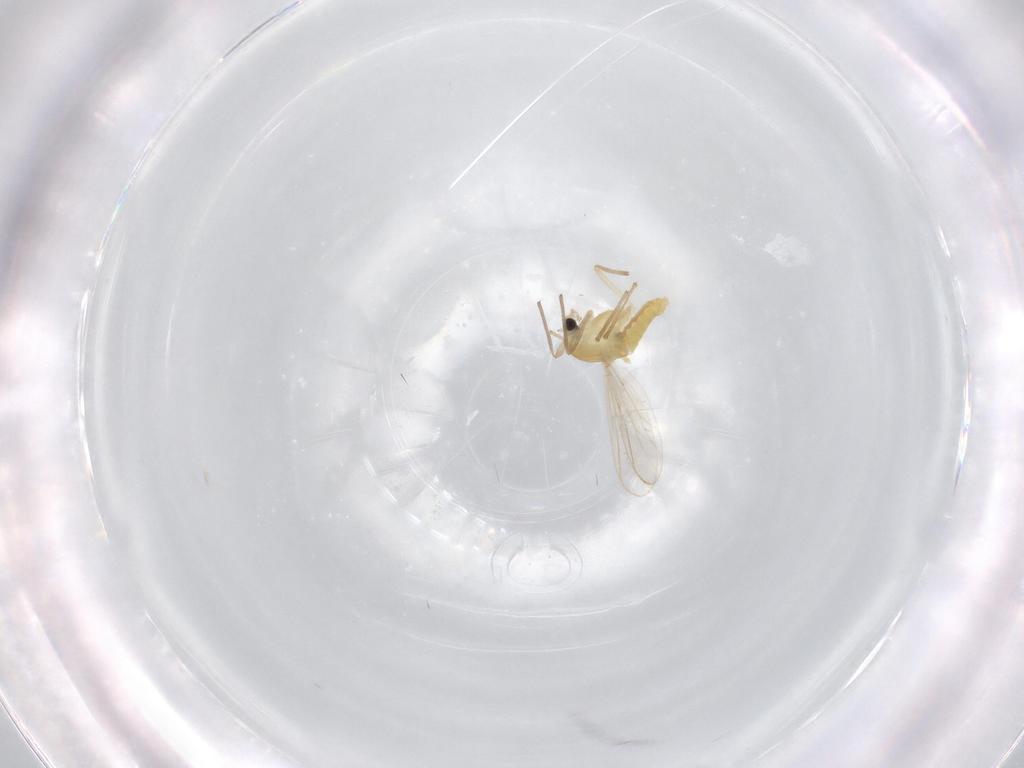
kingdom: Animalia
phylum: Arthropoda
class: Insecta
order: Diptera
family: Chironomidae
